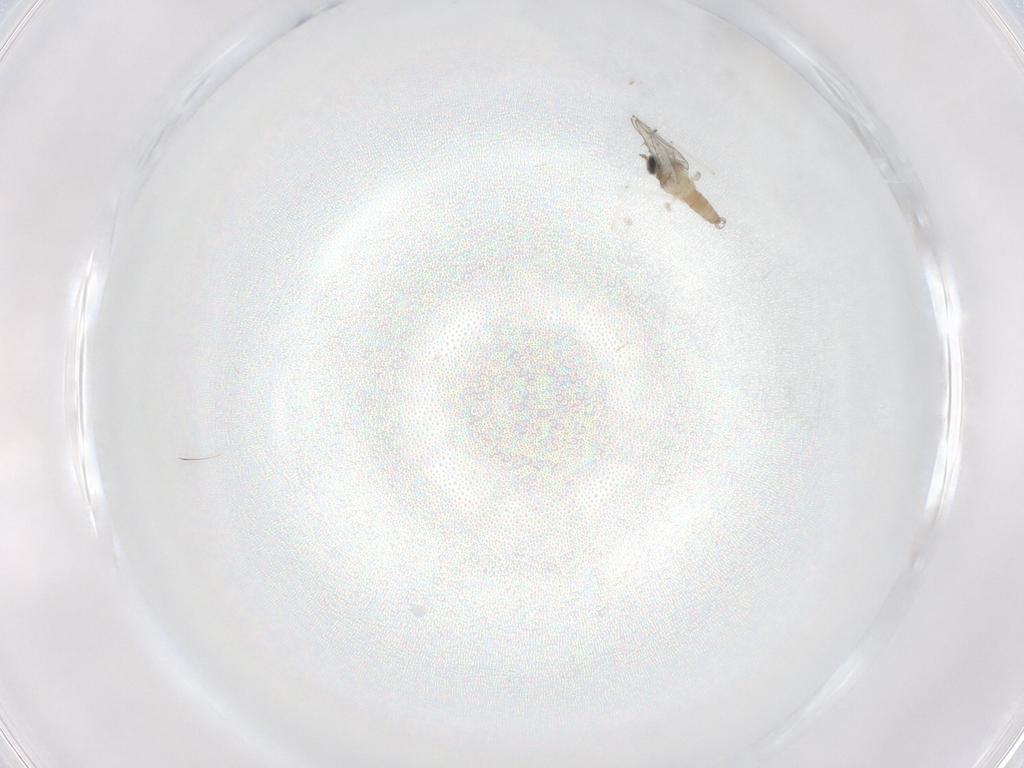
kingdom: Animalia
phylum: Arthropoda
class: Insecta
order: Diptera
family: Cecidomyiidae
